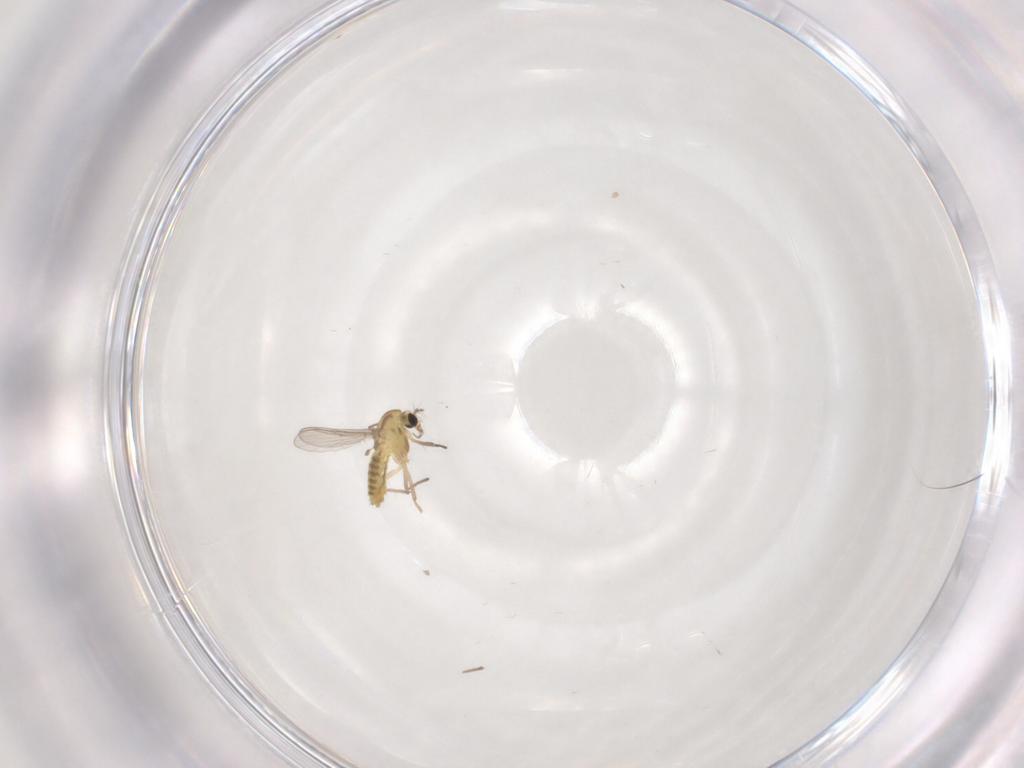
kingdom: Animalia
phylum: Arthropoda
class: Insecta
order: Diptera
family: Chironomidae
